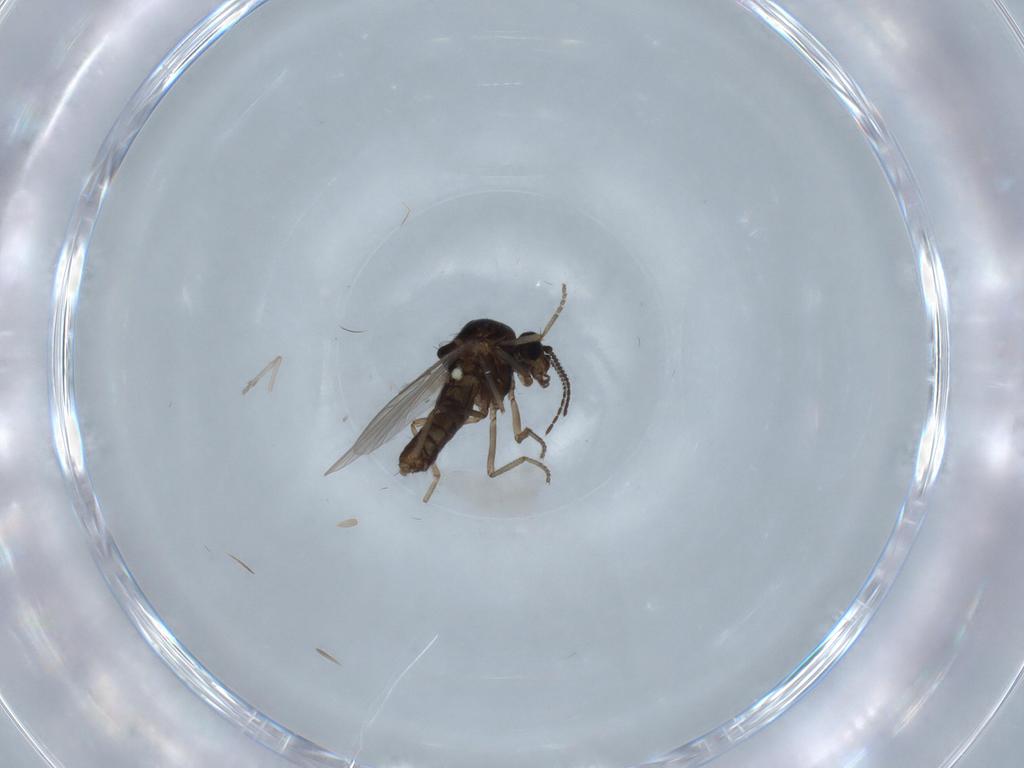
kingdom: Animalia
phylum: Arthropoda
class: Insecta
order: Diptera
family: Ceratopogonidae
